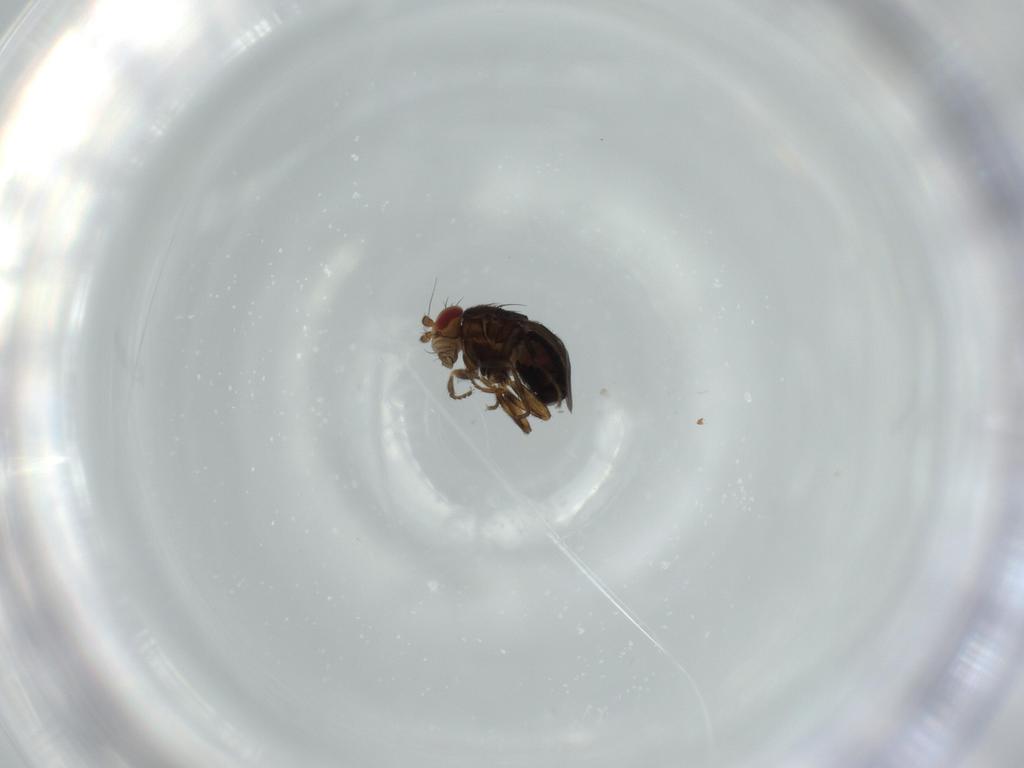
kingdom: Animalia
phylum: Arthropoda
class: Insecta
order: Diptera
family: Sphaeroceridae
